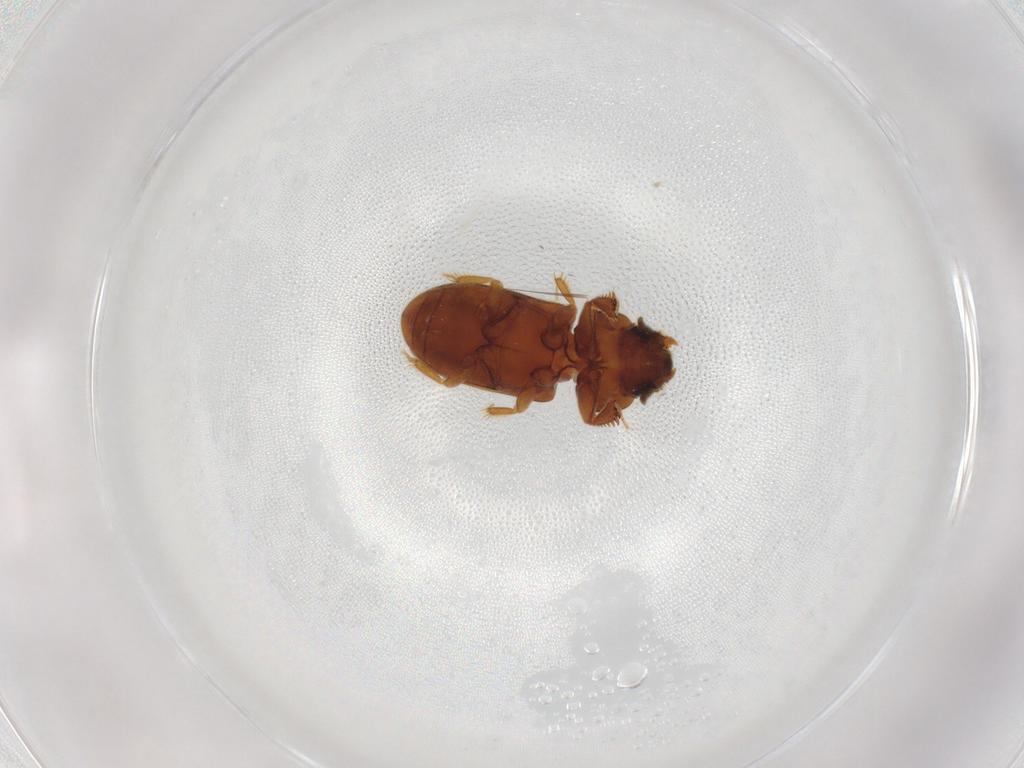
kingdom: Animalia
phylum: Arthropoda
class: Insecta
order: Coleoptera
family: Heteroceridae
